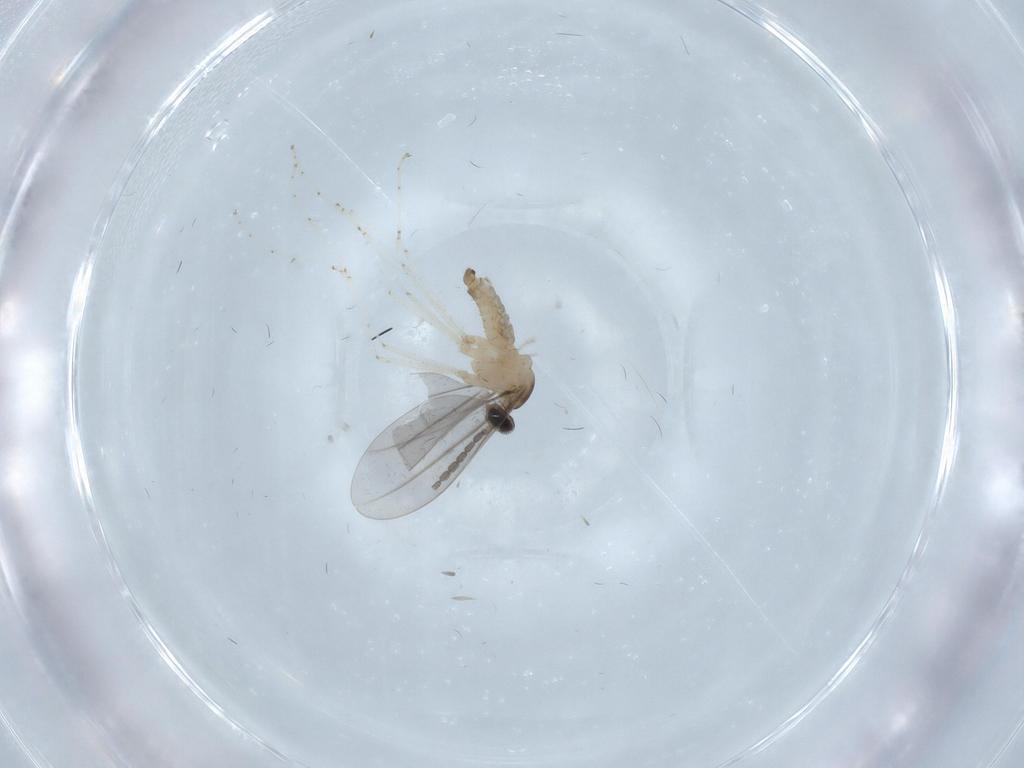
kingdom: Animalia
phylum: Arthropoda
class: Insecta
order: Diptera
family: Cecidomyiidae
